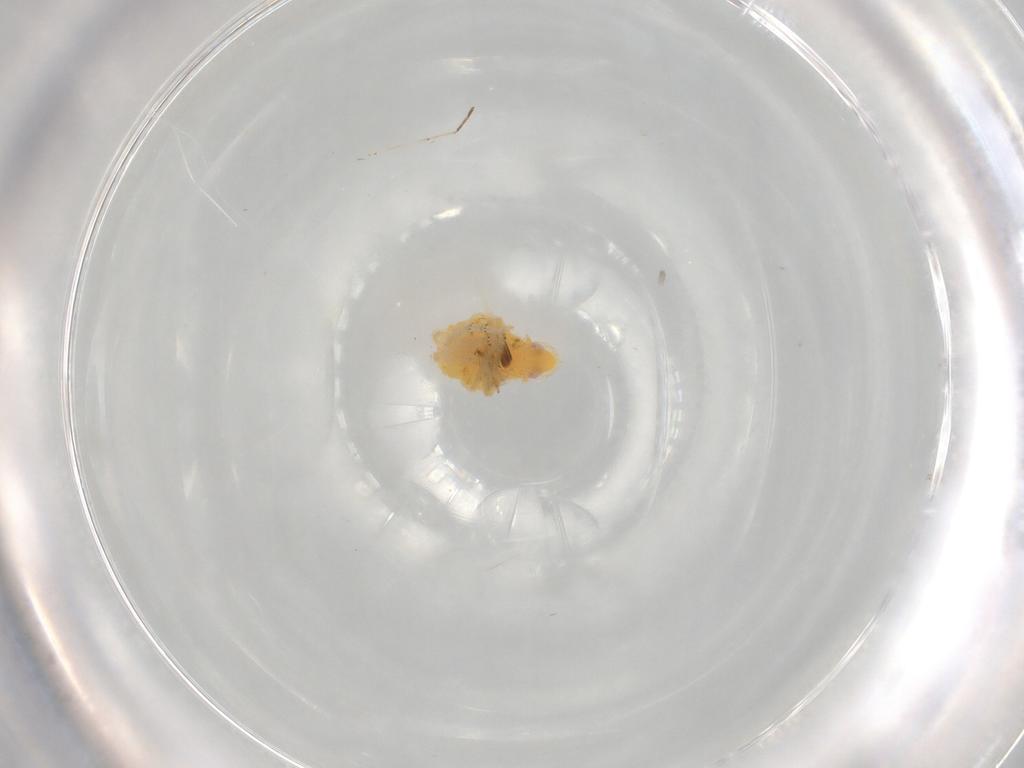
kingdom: Animalia
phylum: Arthropoda
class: Insecta
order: Hemiptera
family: Tropiduchidae
